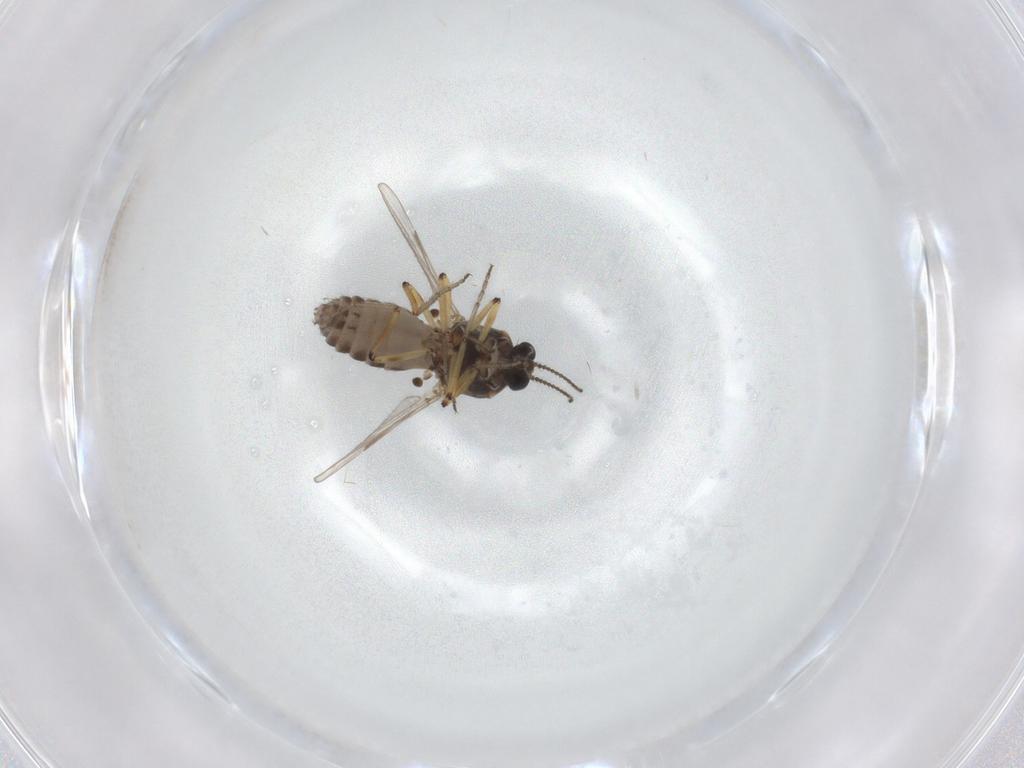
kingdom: Animalia
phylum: Arthropoda
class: Insecta
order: Diptera
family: Ceratopogonidae
